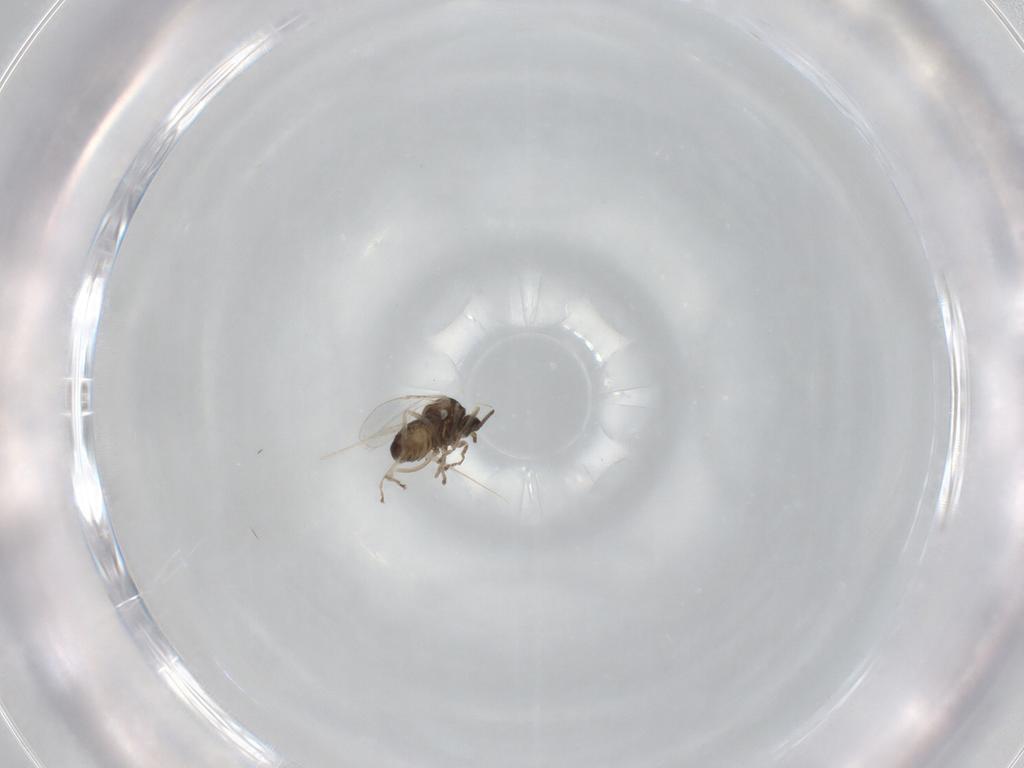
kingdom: Animalia
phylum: Arthropoda
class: Insecta
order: Diptera
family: Cecidomyiidae
